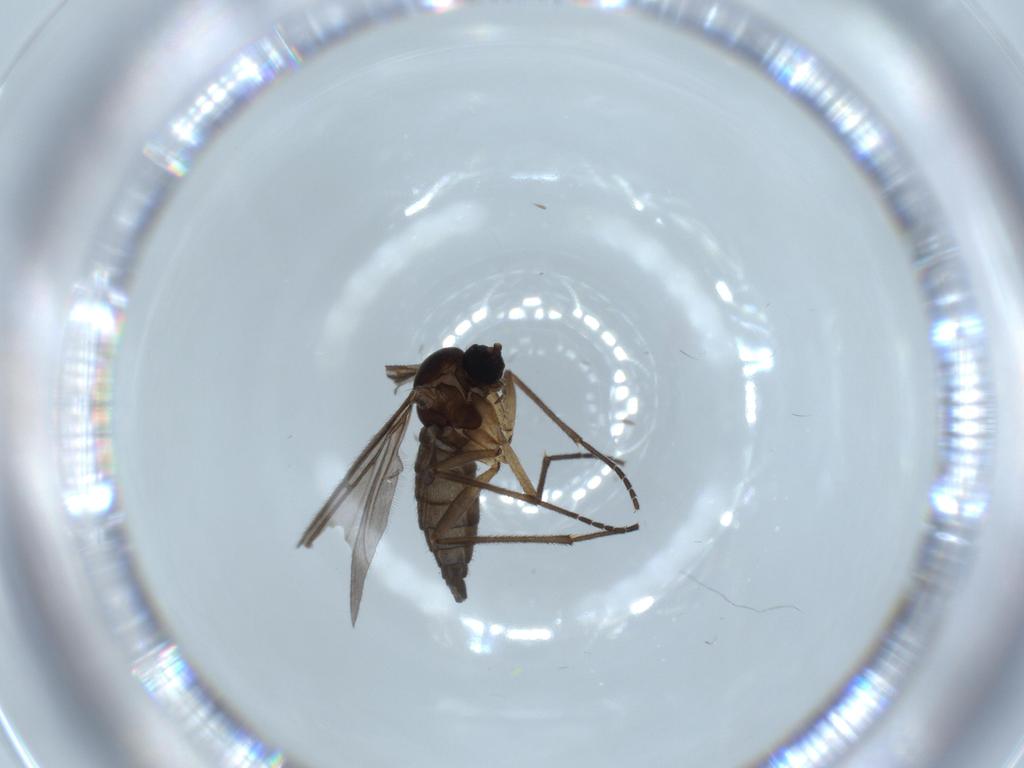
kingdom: Animalia
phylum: Arthropoda
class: Insecta
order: Diptera
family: Sciaridae
